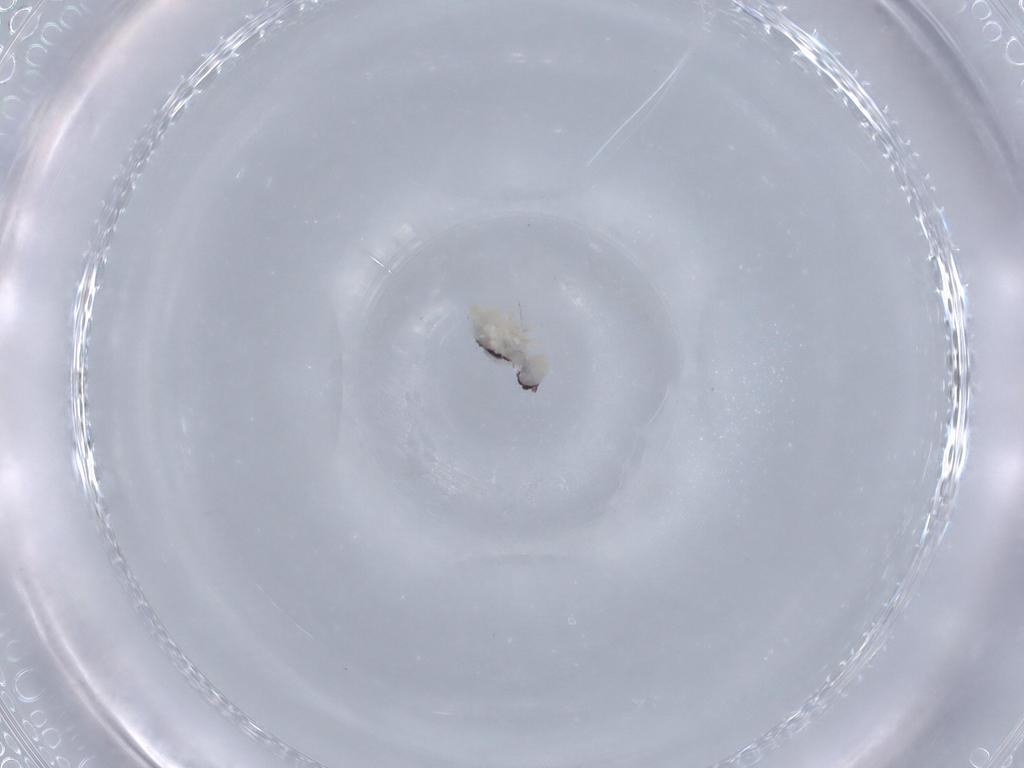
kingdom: Animalia
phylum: Arthropoda
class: Collembola
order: Symphypleona
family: Bourletiellidae
